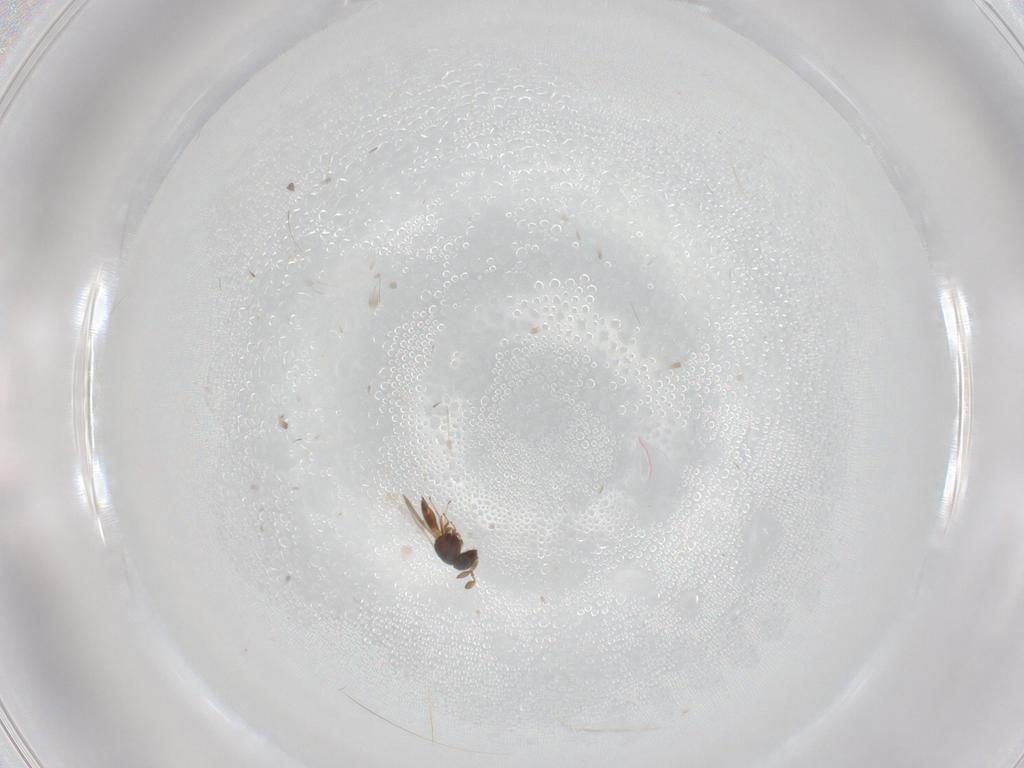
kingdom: Animalia
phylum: Arthropoda
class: Insecta
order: Hymenoptera
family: Scelionidae
